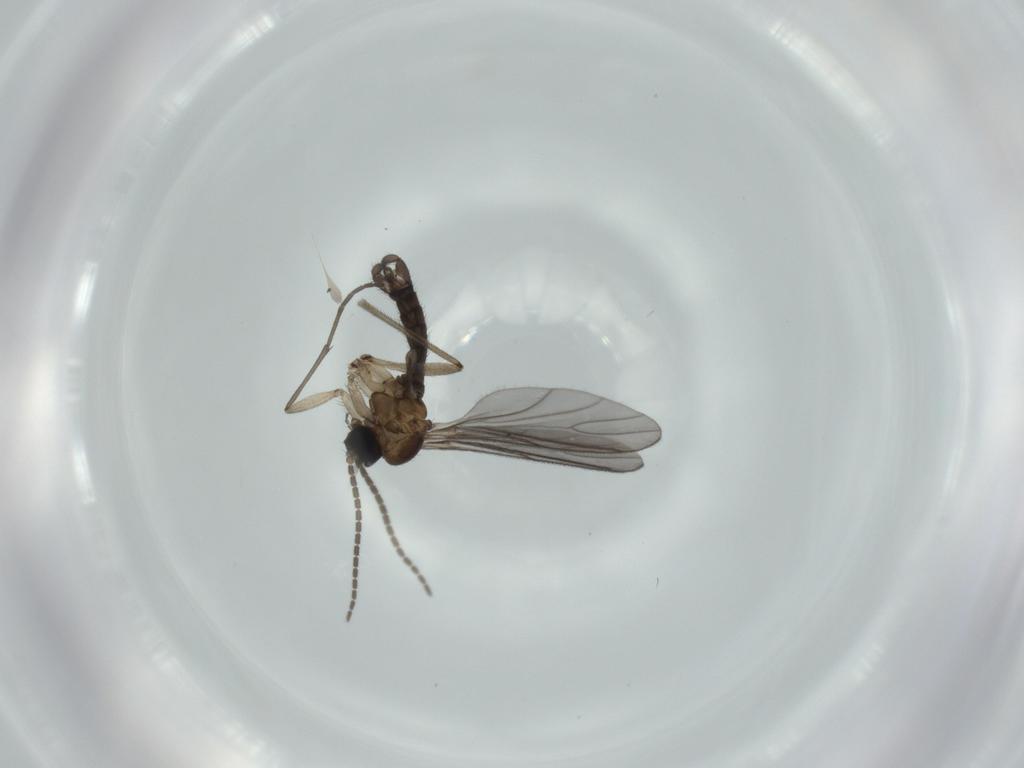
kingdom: Animalia
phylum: Arthropoda
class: Insecta
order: Diptera
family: Sciaridae
